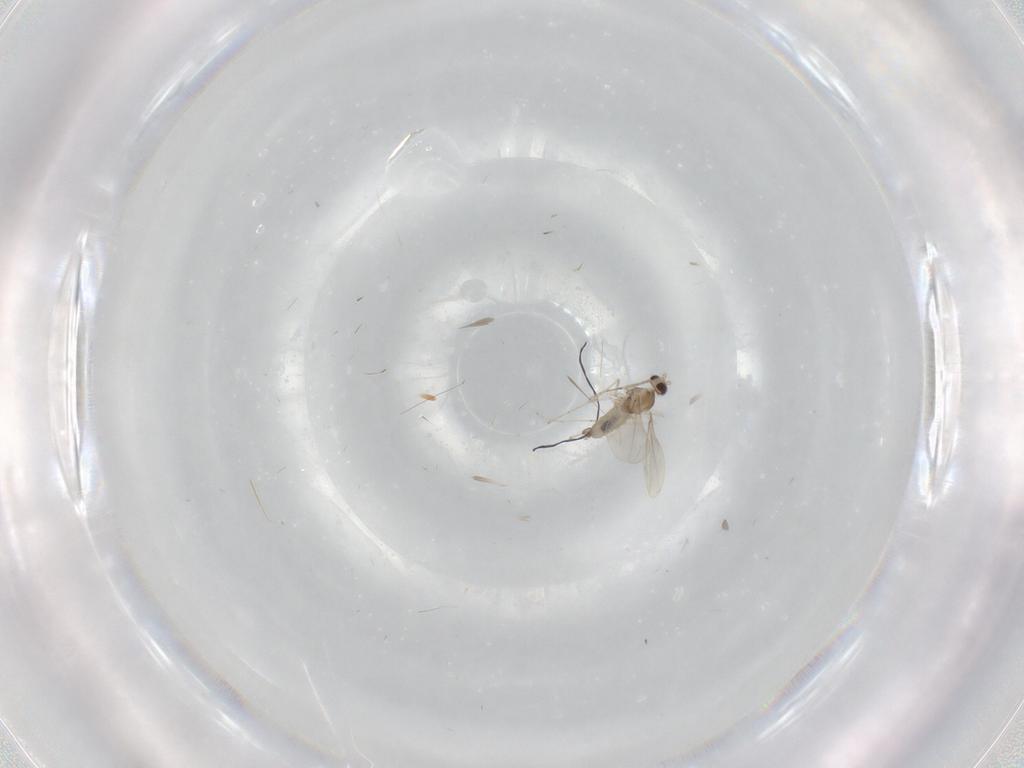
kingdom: Animalia
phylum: Arthropoda
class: Insecta
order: Diptera
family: Cecidomyiidae
